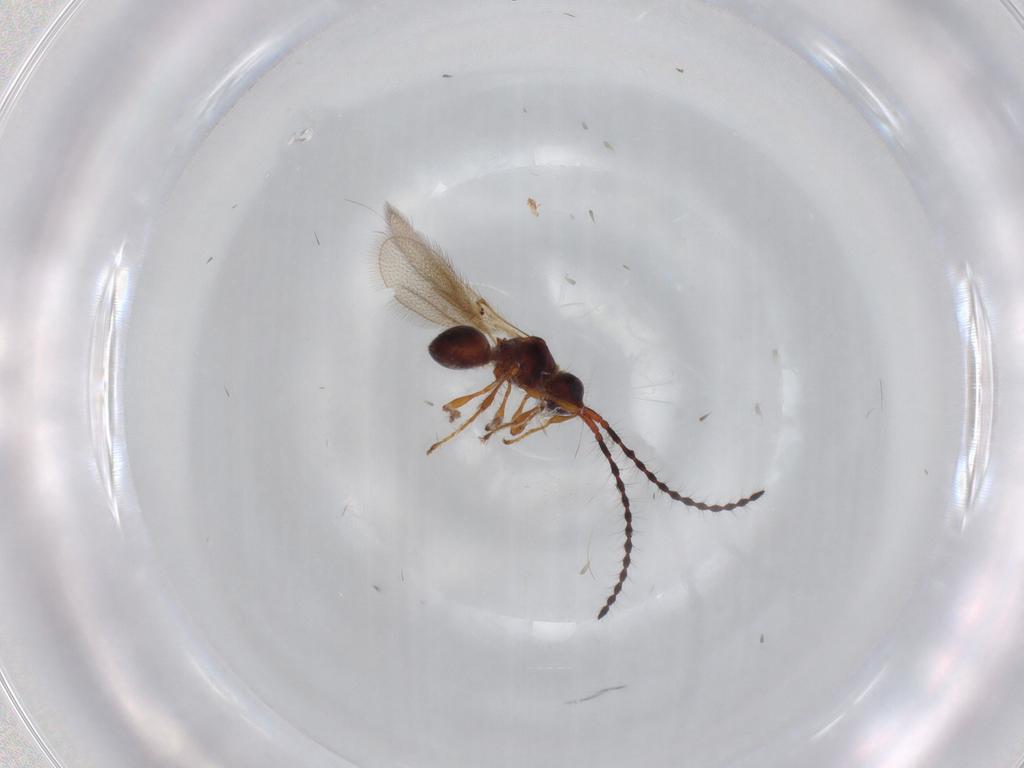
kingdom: Animalia
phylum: Arthropoda
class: Insecta
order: Hymenoptera
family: Diapriidae
